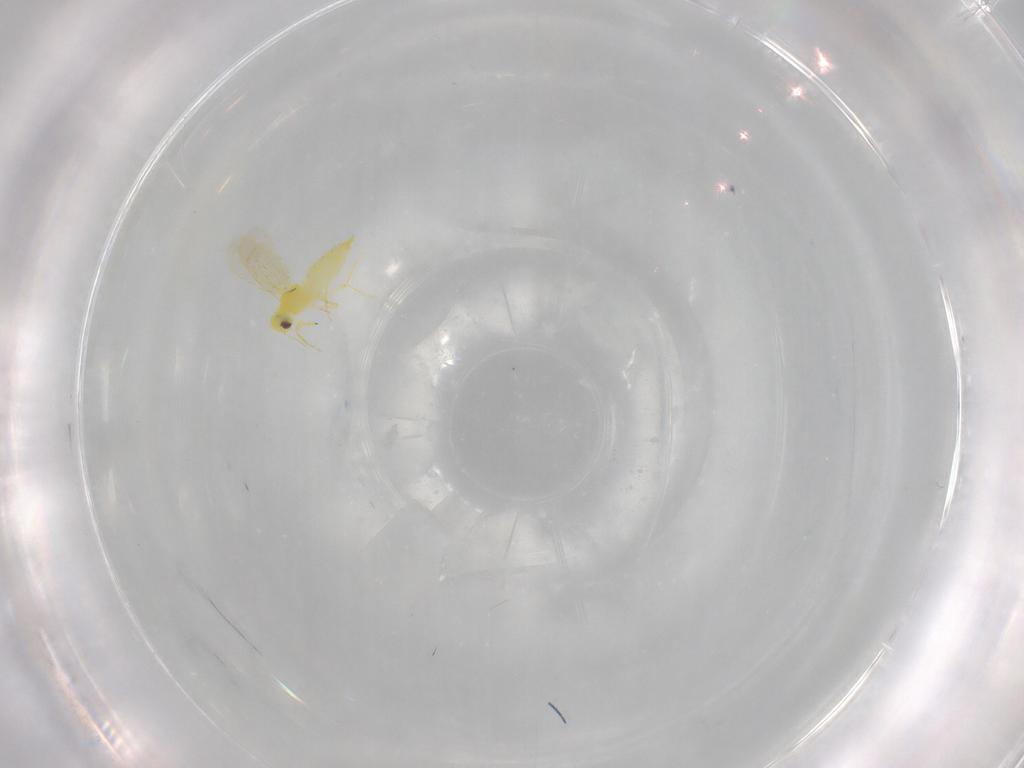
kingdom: Animalia
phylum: Arthropoda
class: Insecta
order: Hemiptera
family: Aleyrodidae
